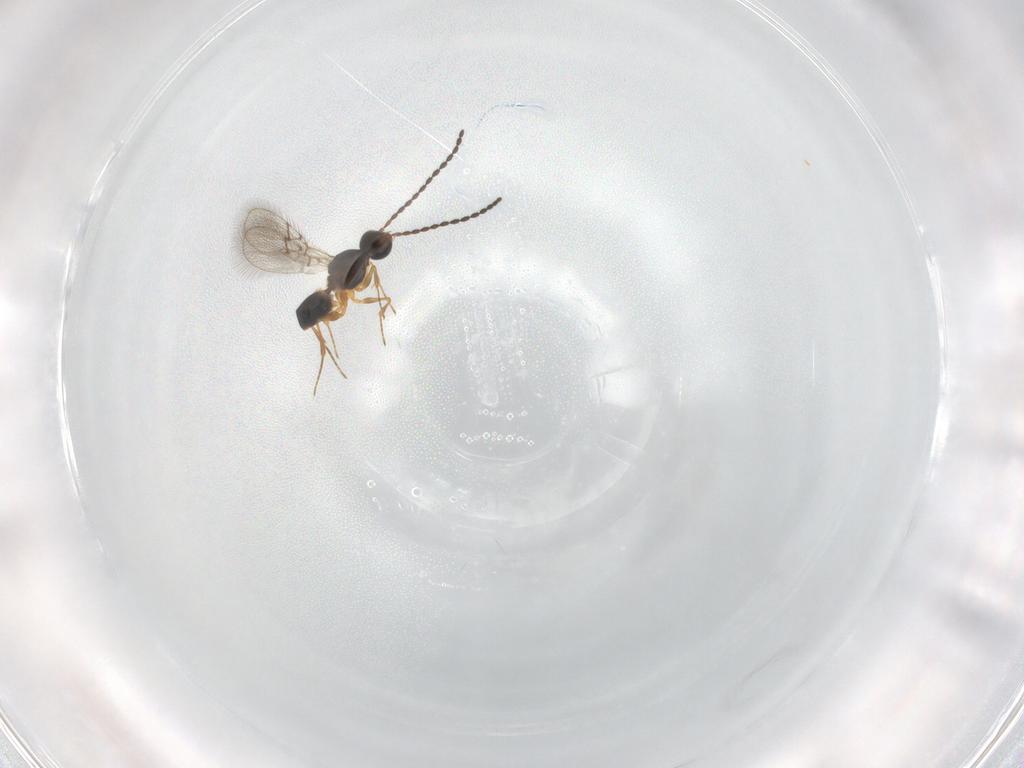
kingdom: Animalia
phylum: Arthropoda
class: Insecta
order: Hymenoptera
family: Figitidae
